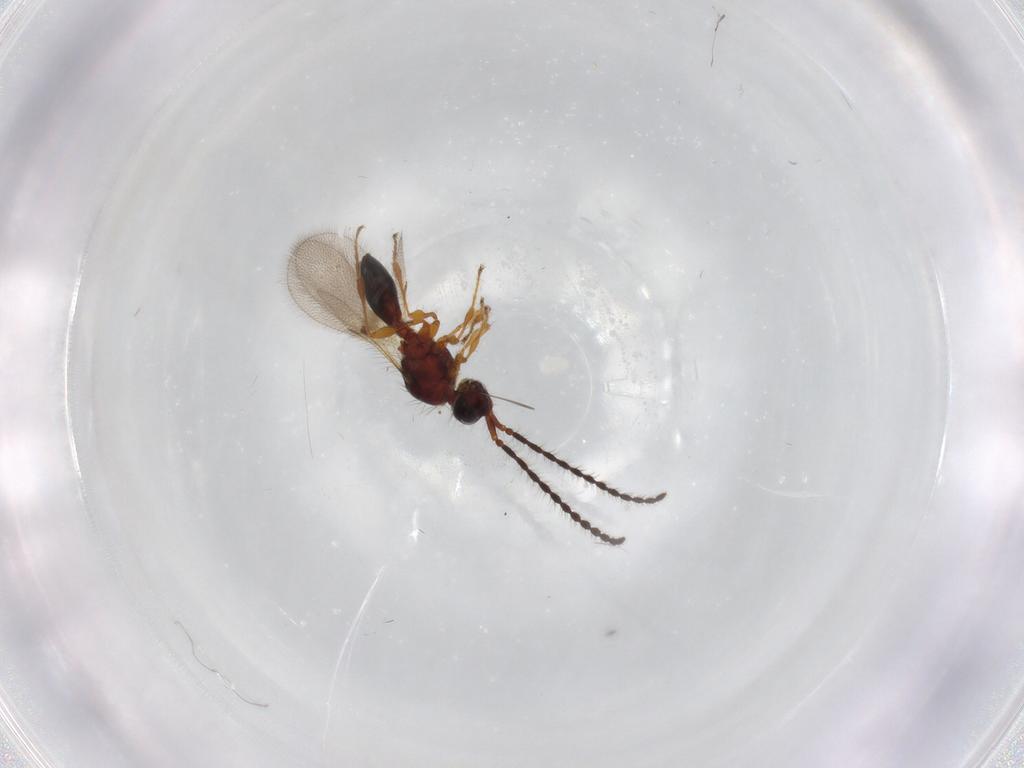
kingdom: Animalia
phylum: Arthropoda
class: Insecta
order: Hymenoptera
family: Diapriidae
